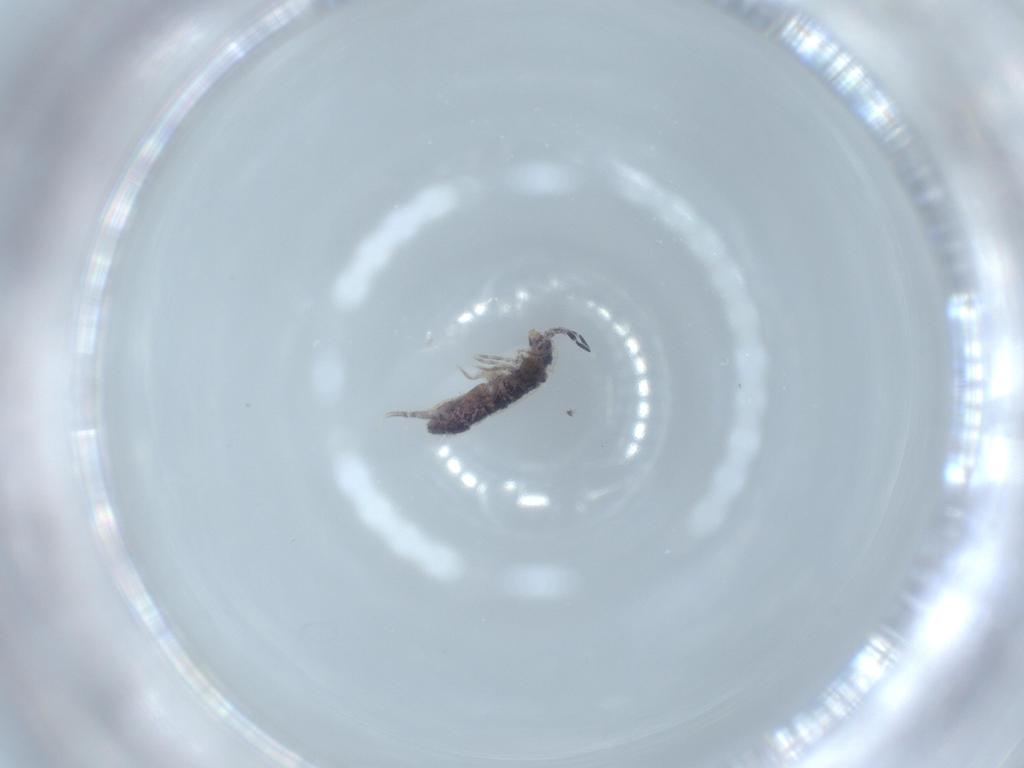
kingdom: Animalia
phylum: Arthropoda
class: Collembola
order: Entomobryomorpha
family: Isotomidae
